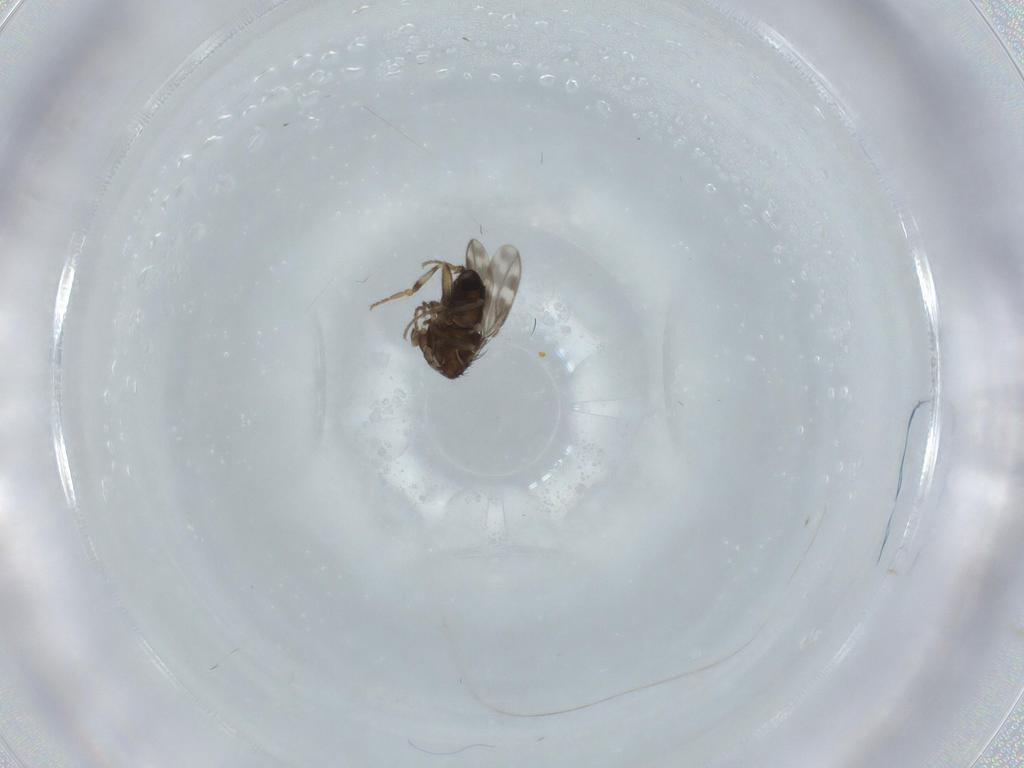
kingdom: Animalia
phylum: Arthropoda
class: Insecta
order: Diptera
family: Sphaeroceridae
